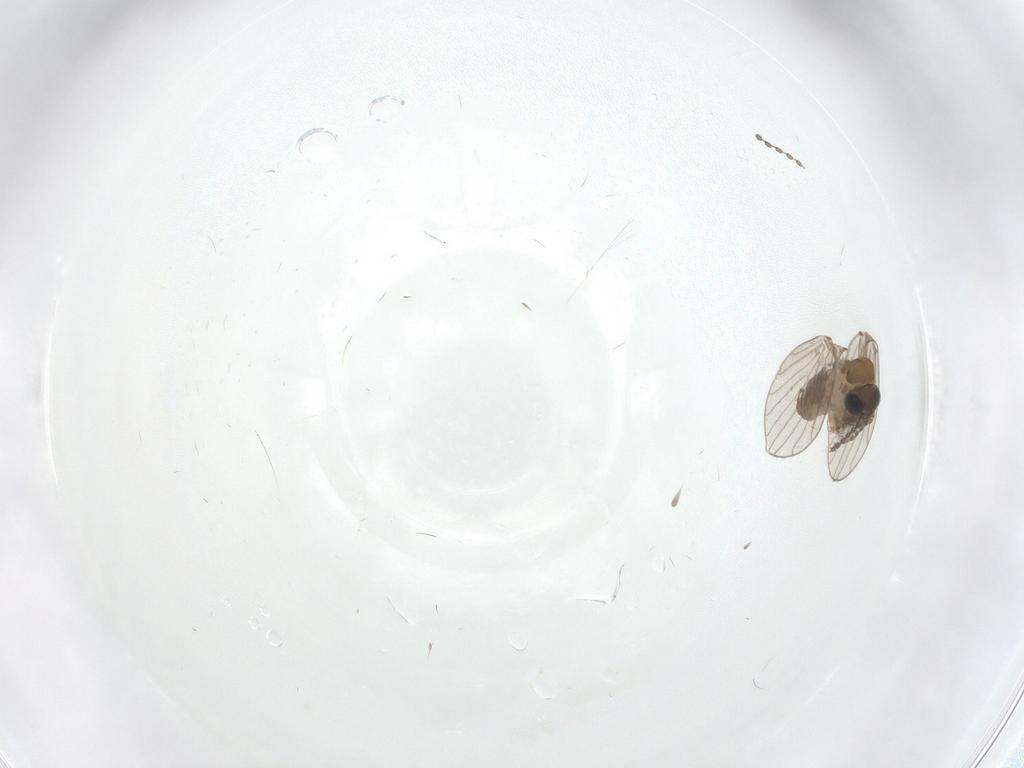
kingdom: Animalia
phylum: Arthropoda
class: Insecta
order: Diptera
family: Psychodidae
